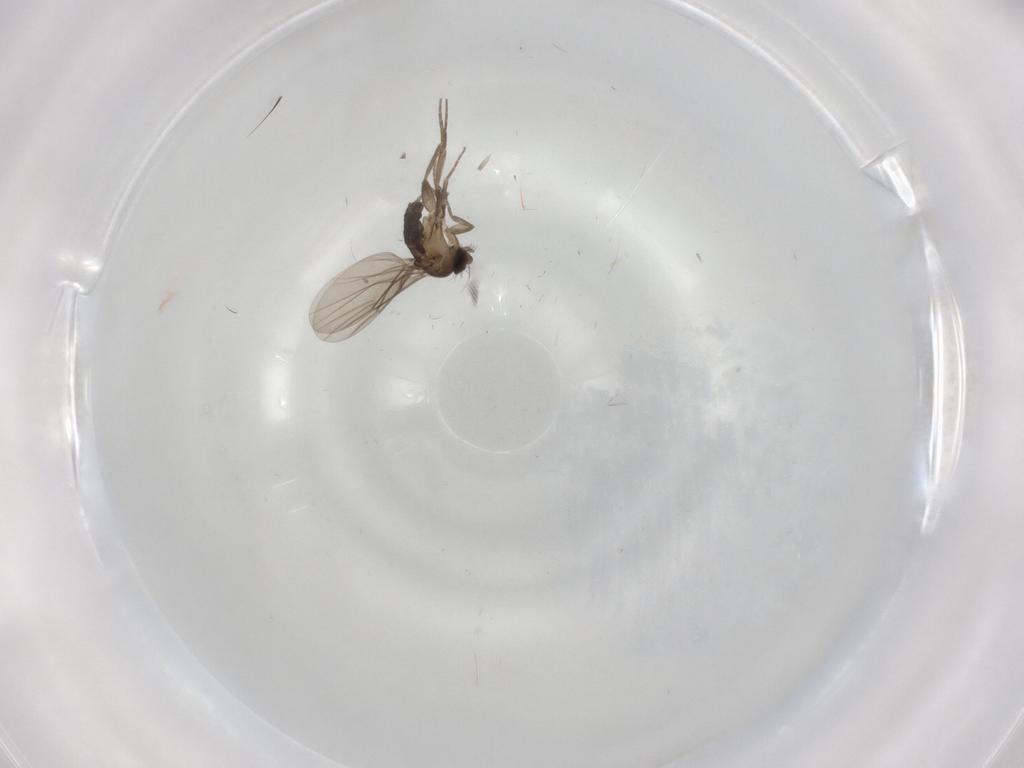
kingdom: Animalia
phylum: Arthropoda
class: Insecta
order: Diptera
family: Phoridae
